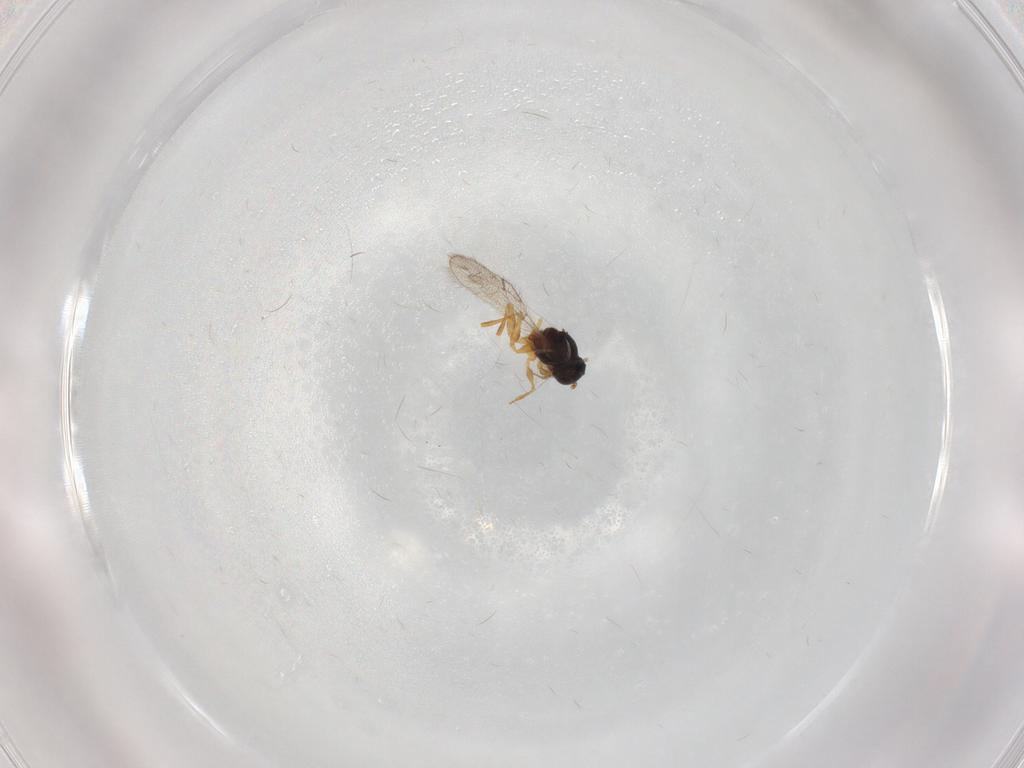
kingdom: Animalia
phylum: Arthropoda
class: Insecta
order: Hymenoptera
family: Figitidae
